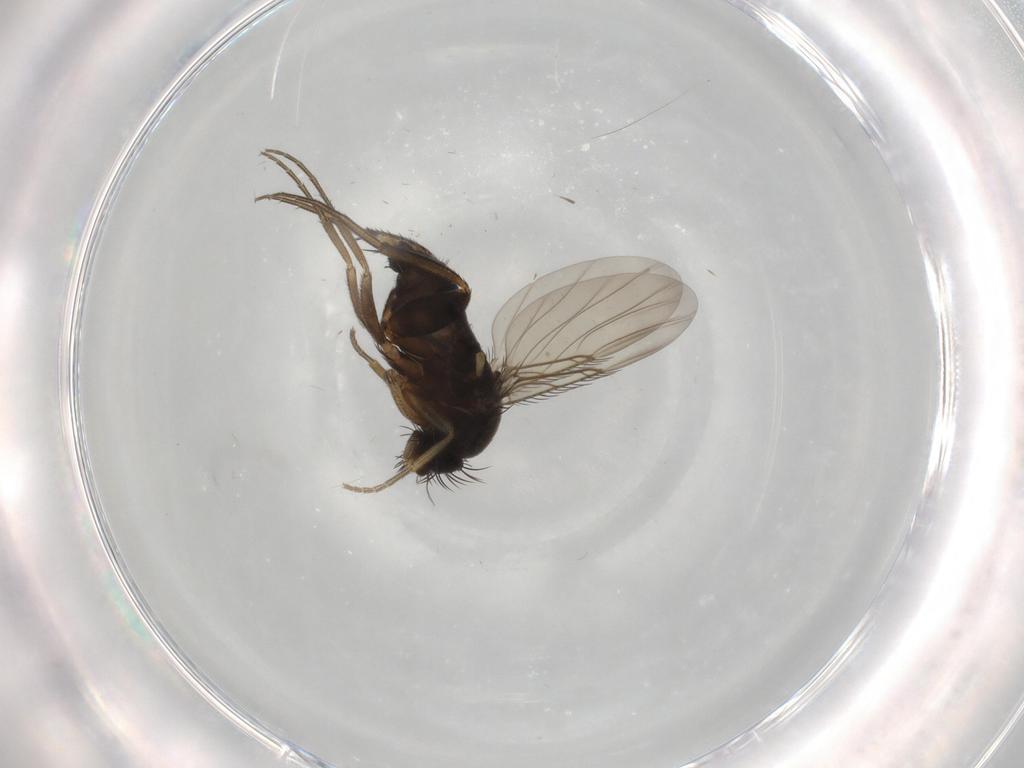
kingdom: Animalia
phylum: Arthropoda
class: Insecta
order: Diptera
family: Phoridae
